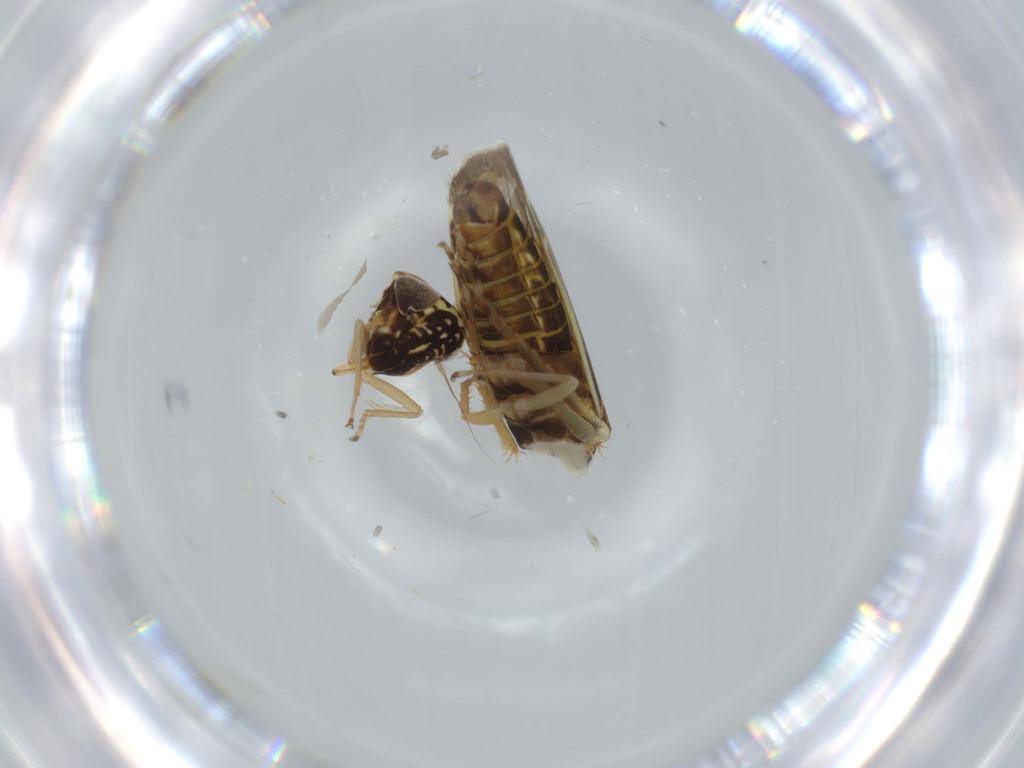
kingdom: Animalia
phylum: Arthropoda
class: Insecta
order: Hemiptera
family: Cicadellidae
